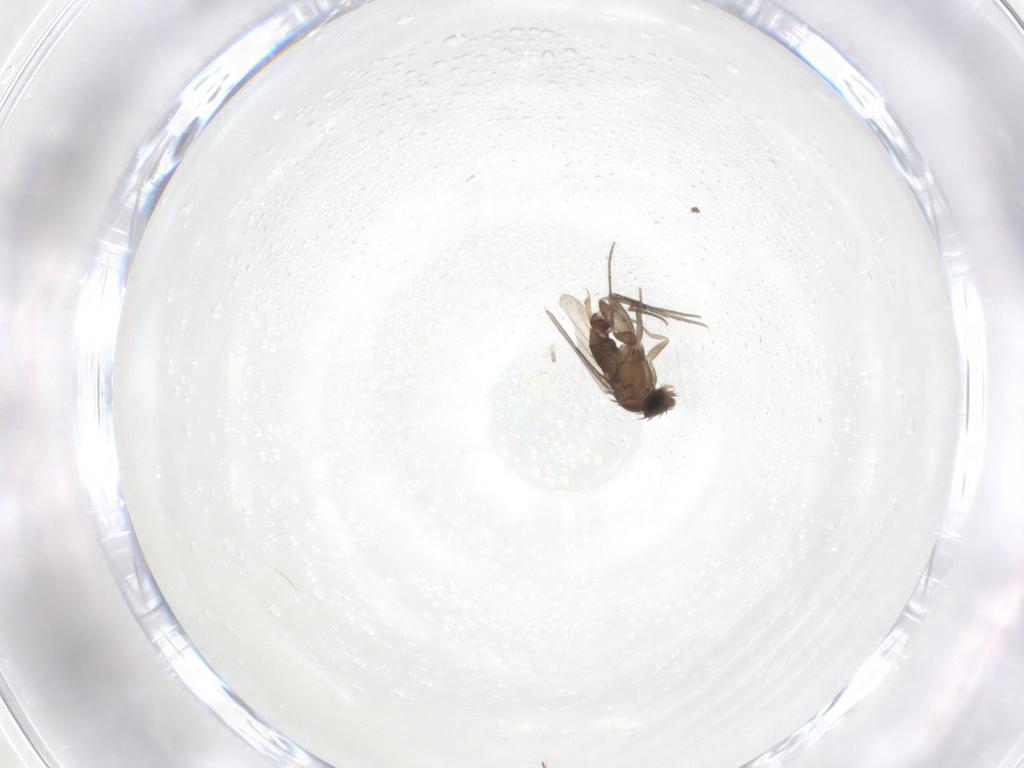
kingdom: Animalia
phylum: Arthropoda
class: Insecta
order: Diptera
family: Phoridae
